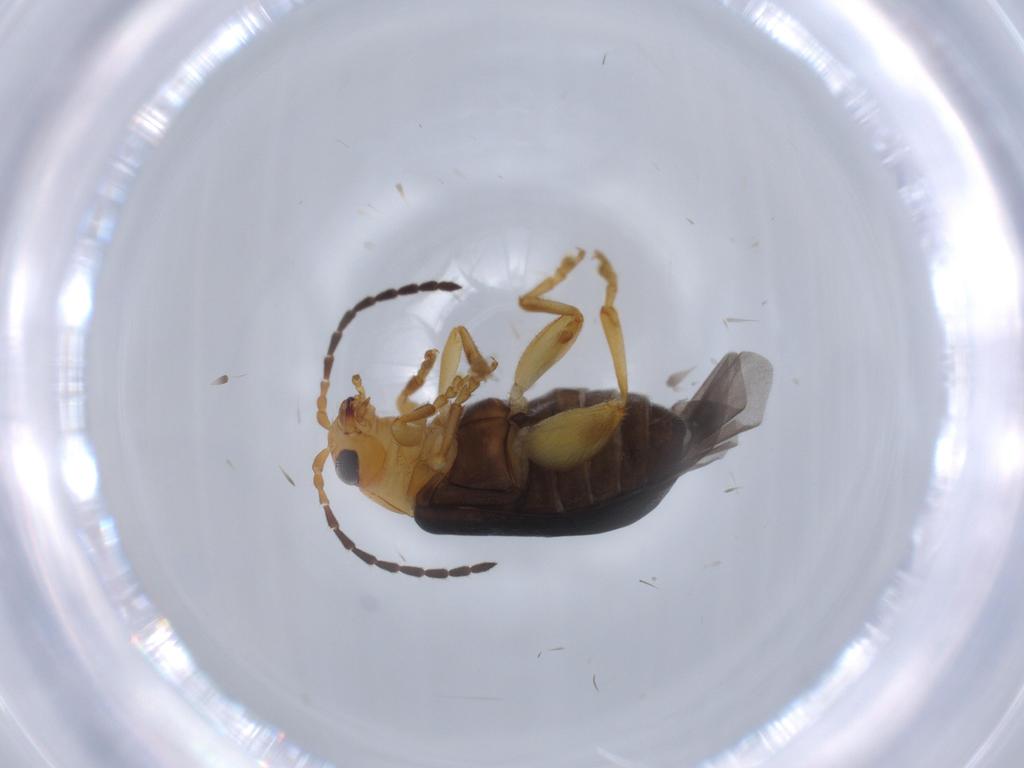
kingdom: Animalia
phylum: Arthropoda
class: Insecta
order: Coleoptera
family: Chrysomelidae
